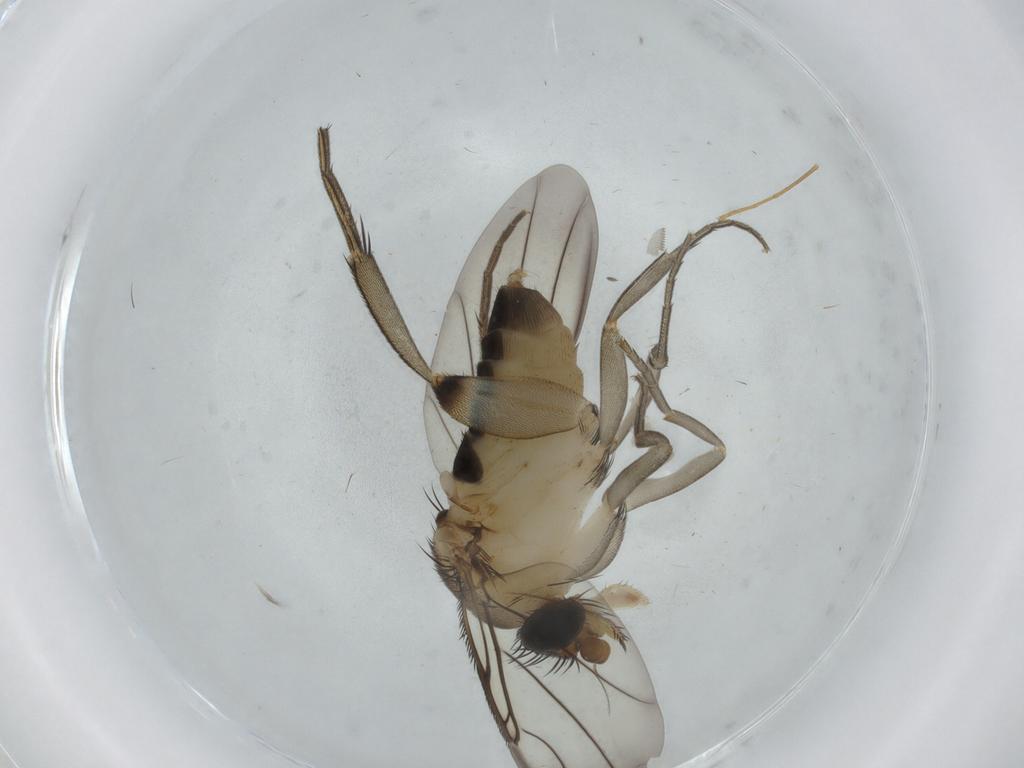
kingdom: Animalia
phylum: Arthropoda
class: Insecta
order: Diptera
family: Phoridae
